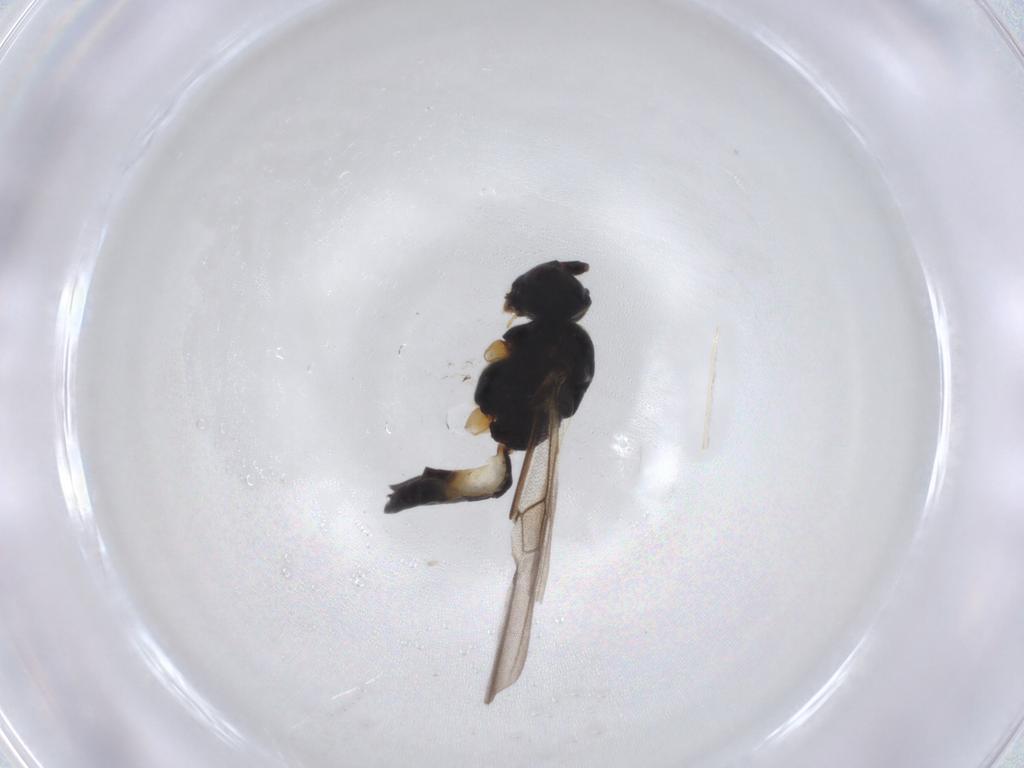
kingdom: Animalia
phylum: Arthropoda
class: Insecta
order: Hymenoptera
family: Braconidae
